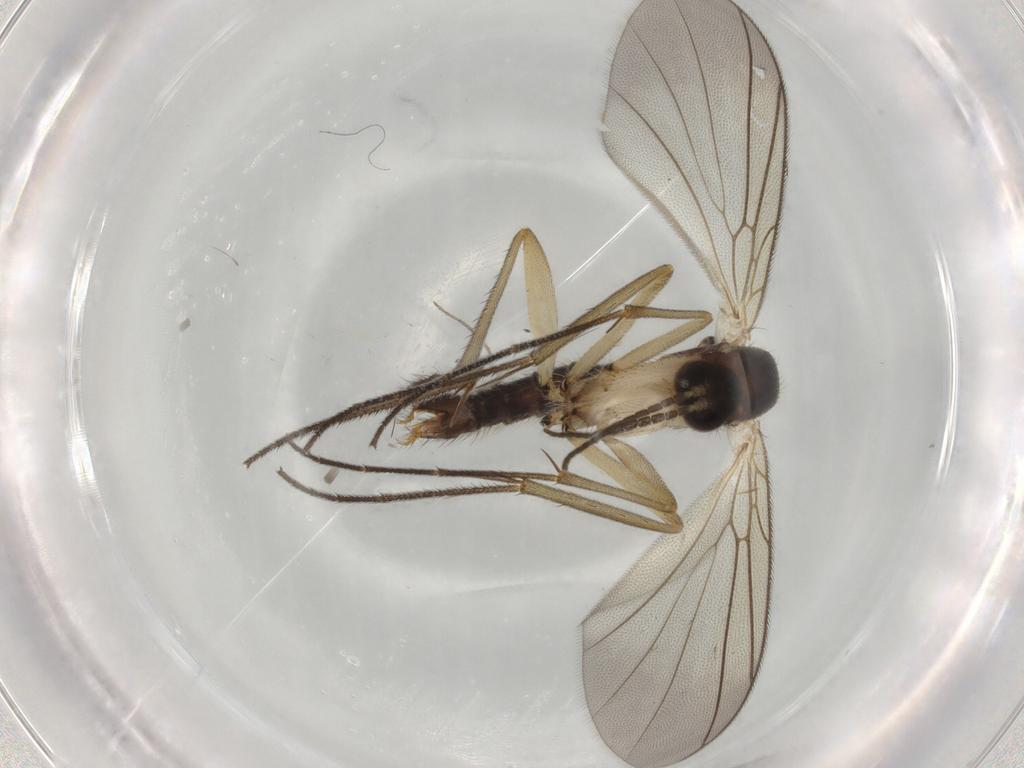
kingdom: Animalia
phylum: Arthropoda
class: Insecta
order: Diptera
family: Mycetophilidae
